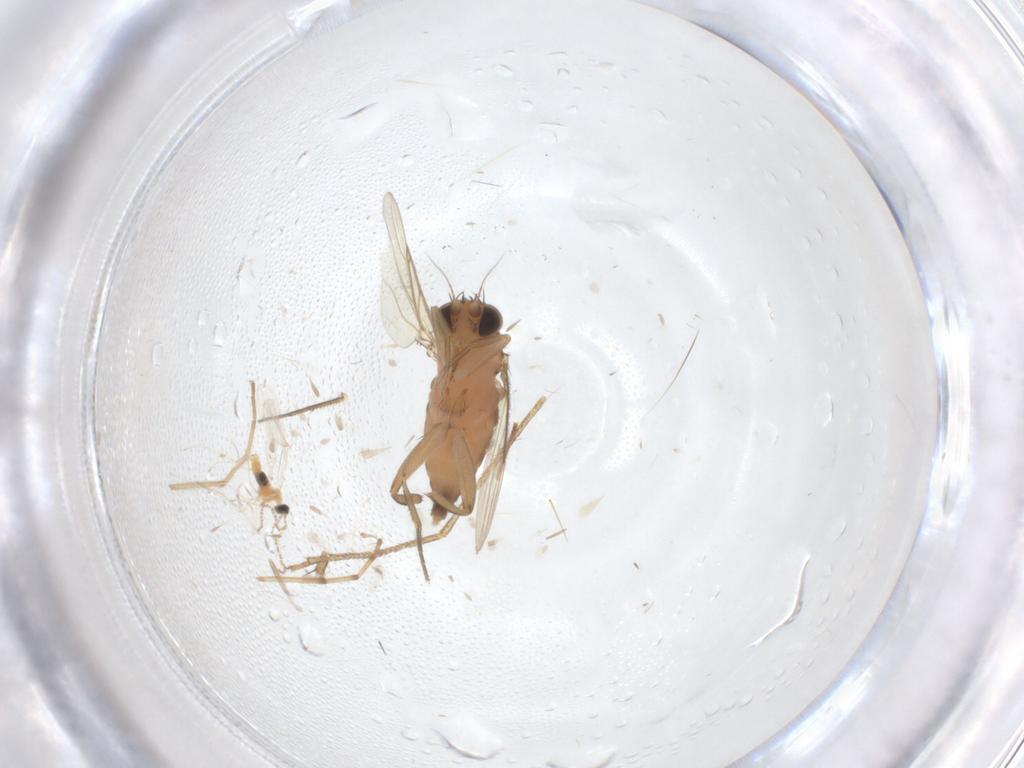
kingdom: Animalia
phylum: Arthropoda
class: Insecta
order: Diptera
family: Cecidomyiidae
